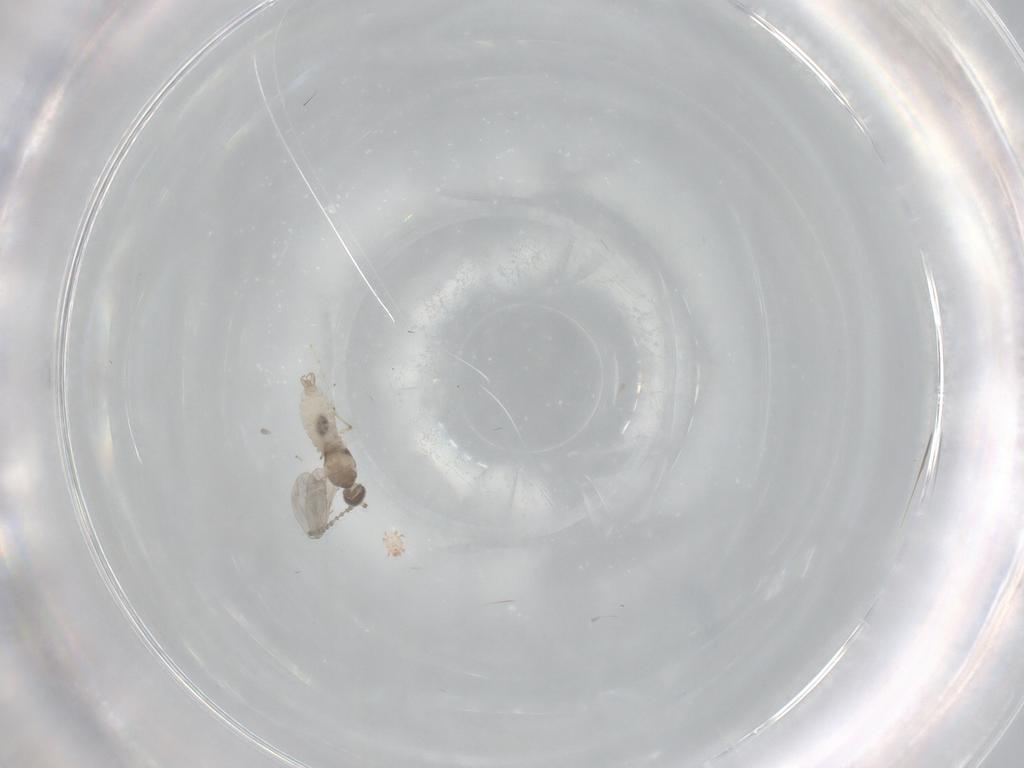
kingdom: Animalia
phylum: Arthropoda
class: Insecta
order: Diptera
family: Cecidomyiidae
